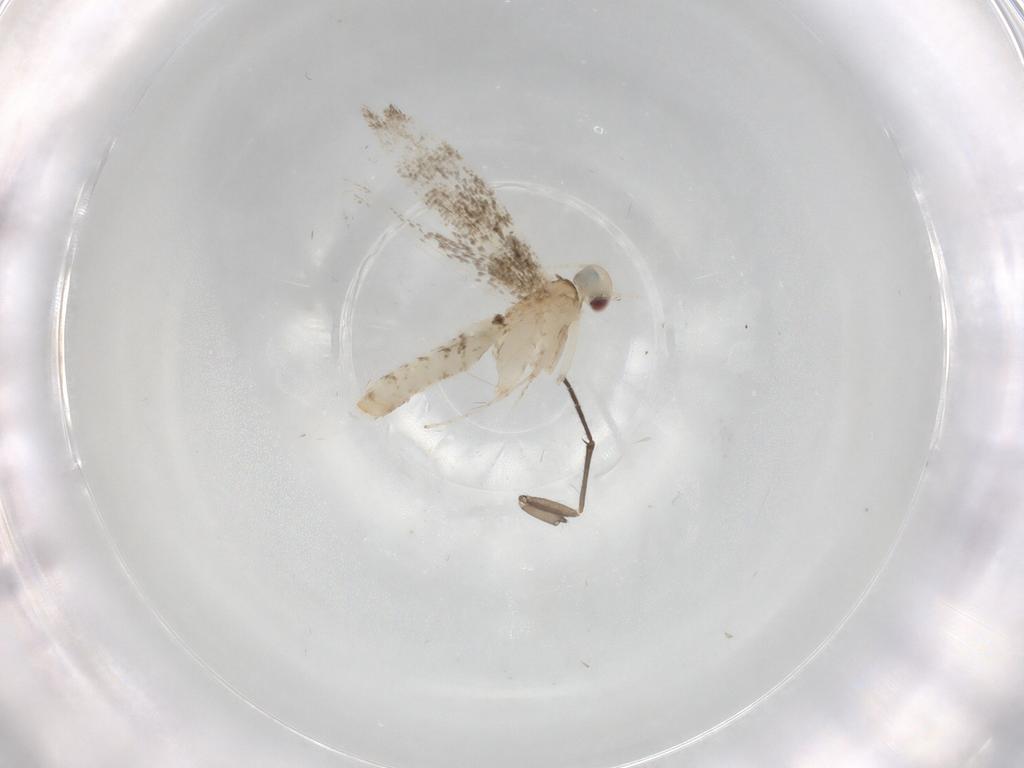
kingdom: Animalia
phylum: Arthropoda
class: Insecta
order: Lepidoptera
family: Gracillariidae
